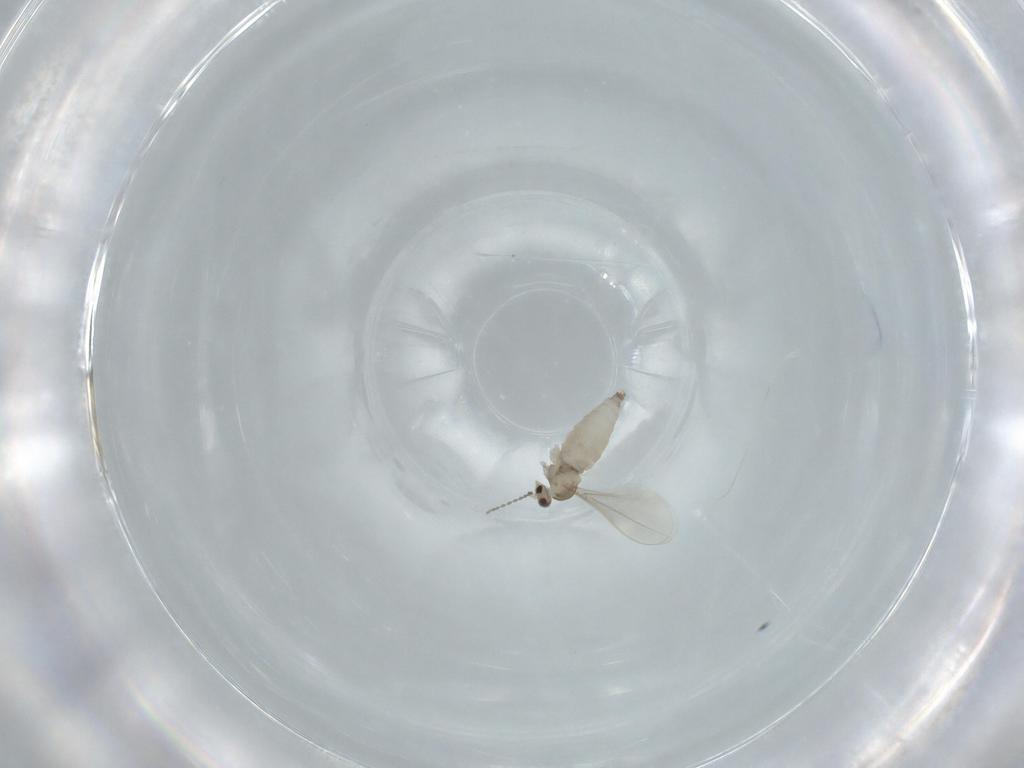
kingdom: Animalia
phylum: Arthropoda
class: Insecta
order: Diptera
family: Cecidomyiidae
